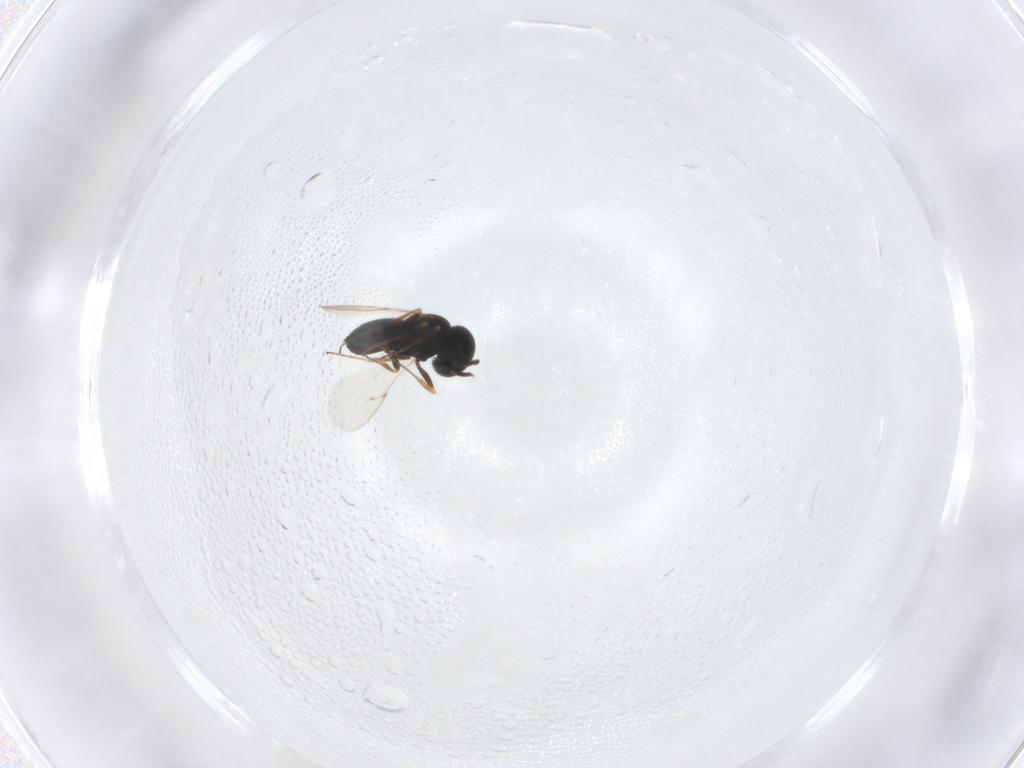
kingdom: Animalia
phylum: Arthropoda
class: Insecta
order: Hymenoptera
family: Scelionidae
